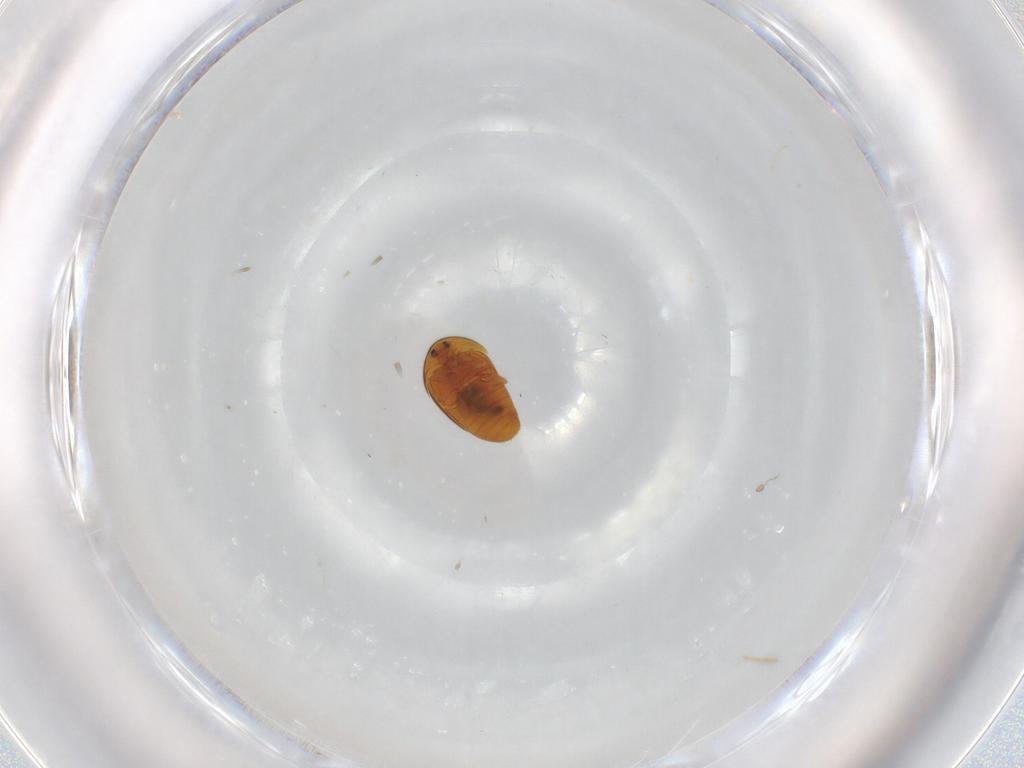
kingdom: Animalia
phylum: Arthropoda
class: Insecta
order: Coleoptera
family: Corylophidae
